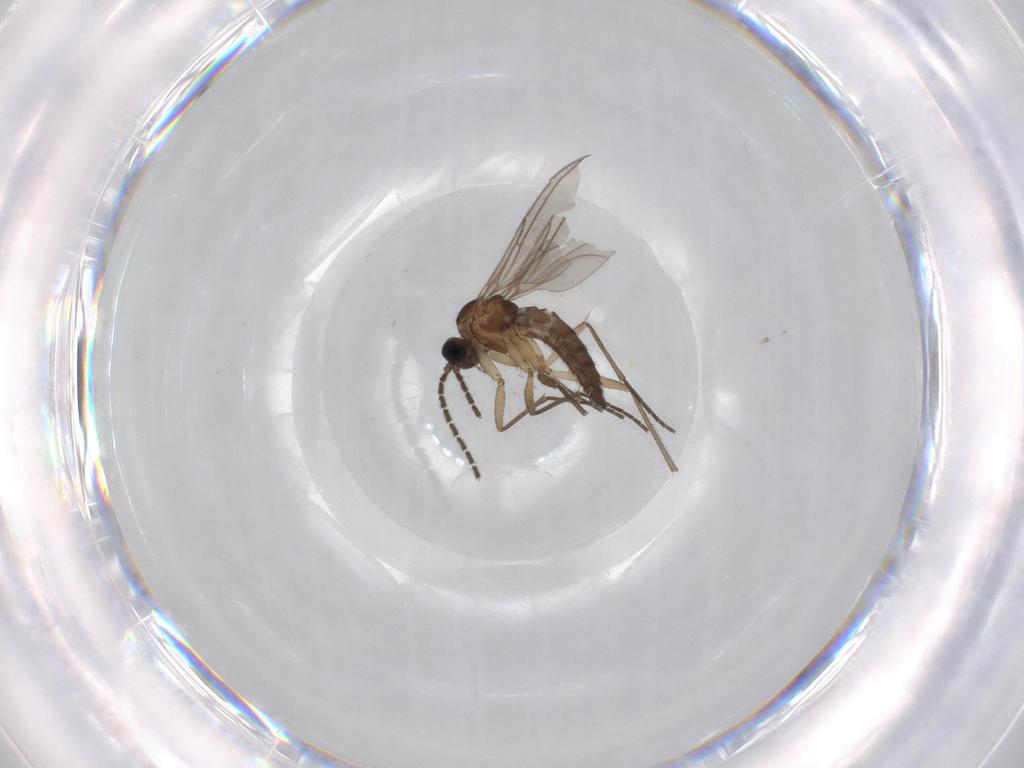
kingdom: Animalia
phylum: Arthropoda
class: Insecta
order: Diptera
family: Sciaridae
